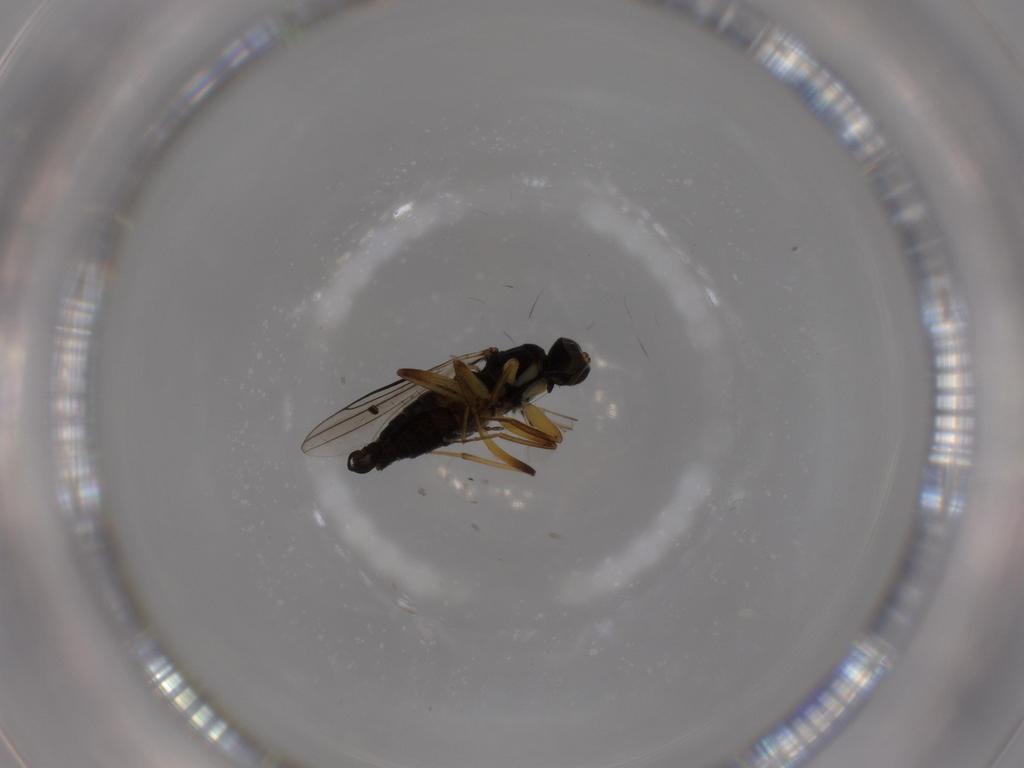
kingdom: Animalia
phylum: Arthropoda
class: Insecta
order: Diptera
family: Hybotidae
